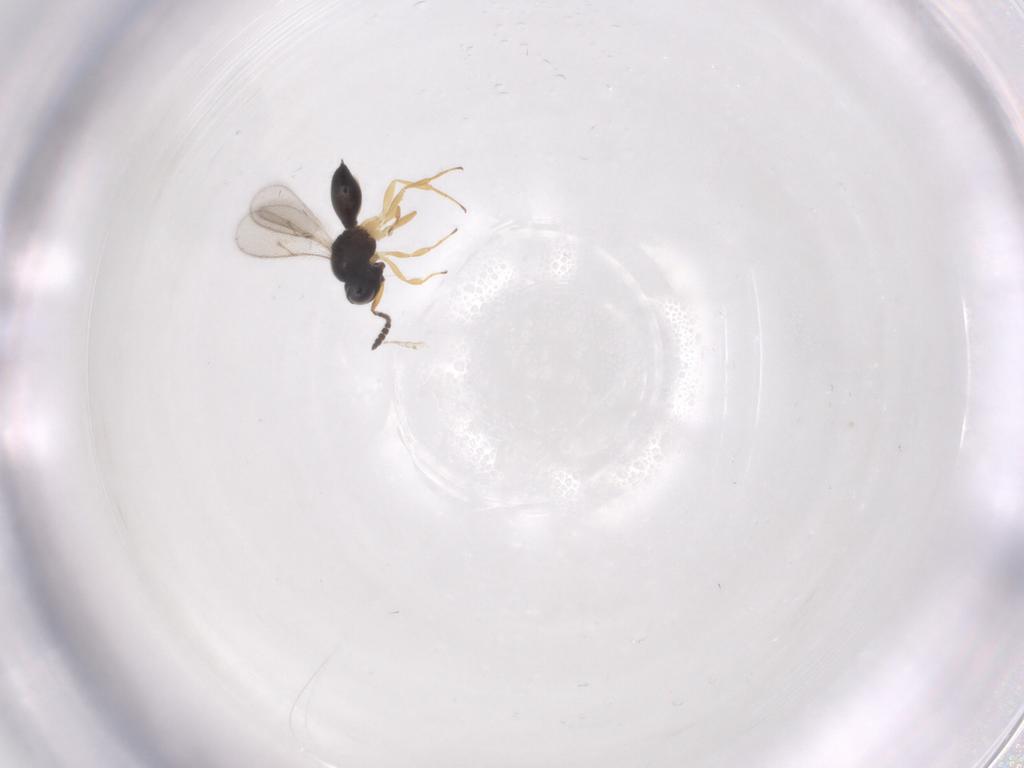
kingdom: Animalia
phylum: Arthropoda
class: Insecta
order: Hymenoptera
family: Scelionidae
